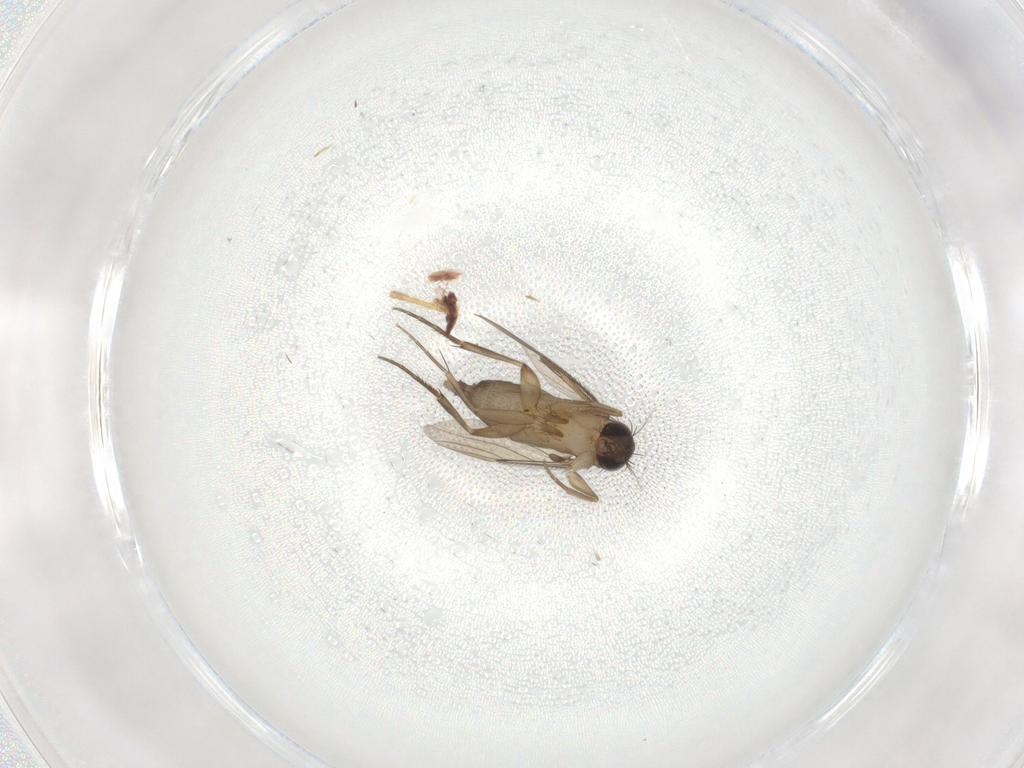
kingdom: Animalia
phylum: Arthropoda
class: Insecta
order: Diptera
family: Phoridae
